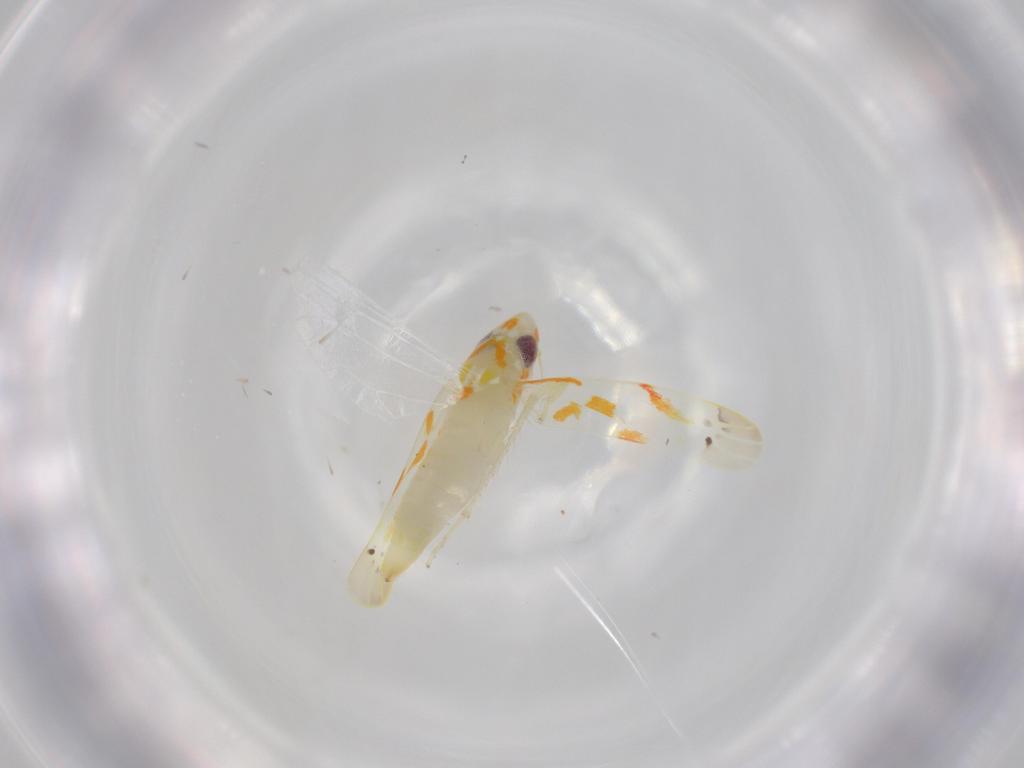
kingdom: Animalia
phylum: Arthropoda
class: Insecta
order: Hemiptera
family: Cicadellidae
